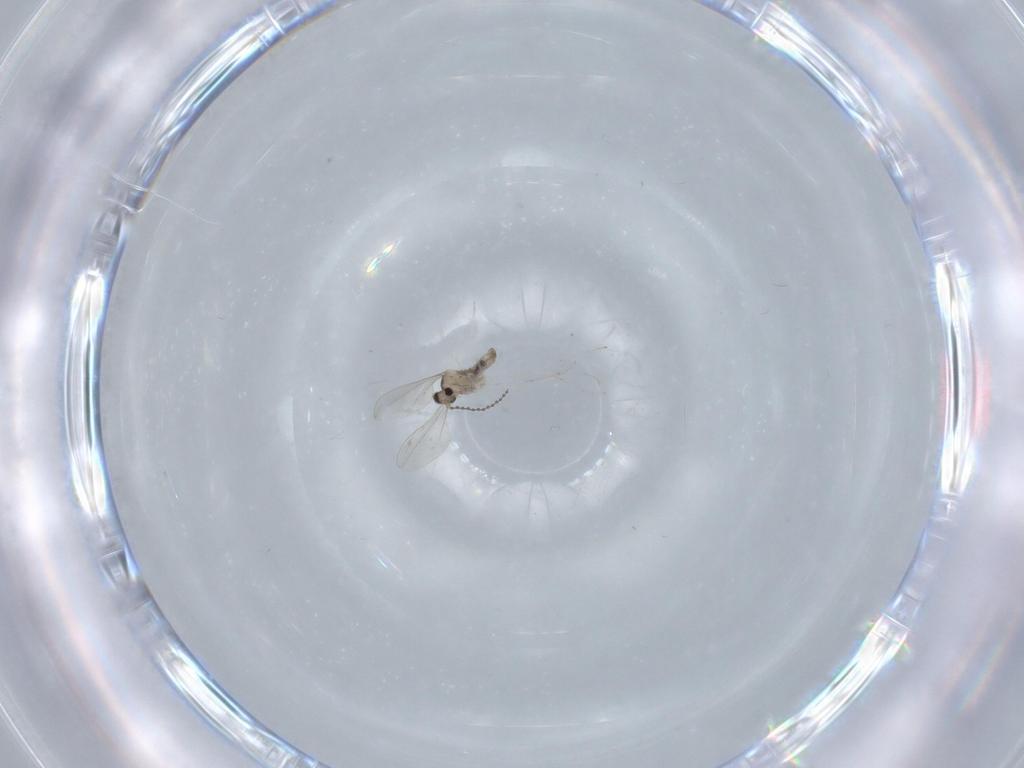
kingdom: Animalia
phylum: Arthropoda
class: Insecta
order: Diptera
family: Cecidomyiidae
